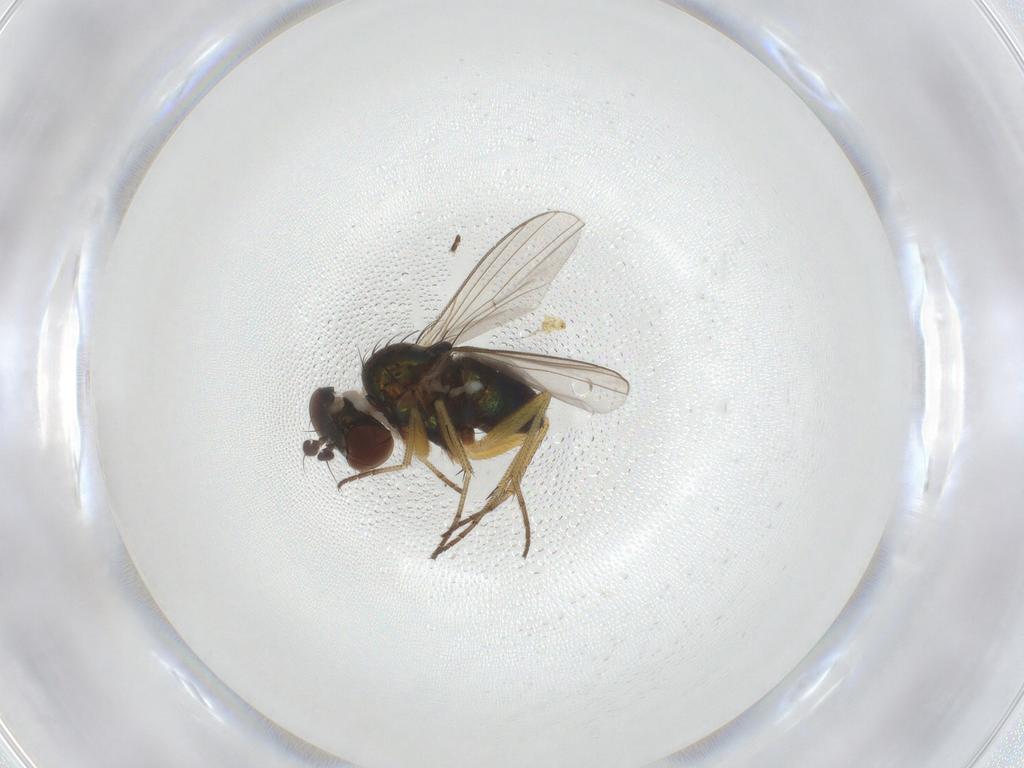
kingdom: Animalia
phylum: Arthropoda
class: Insecta
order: Diptera
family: Dolichopodidae
